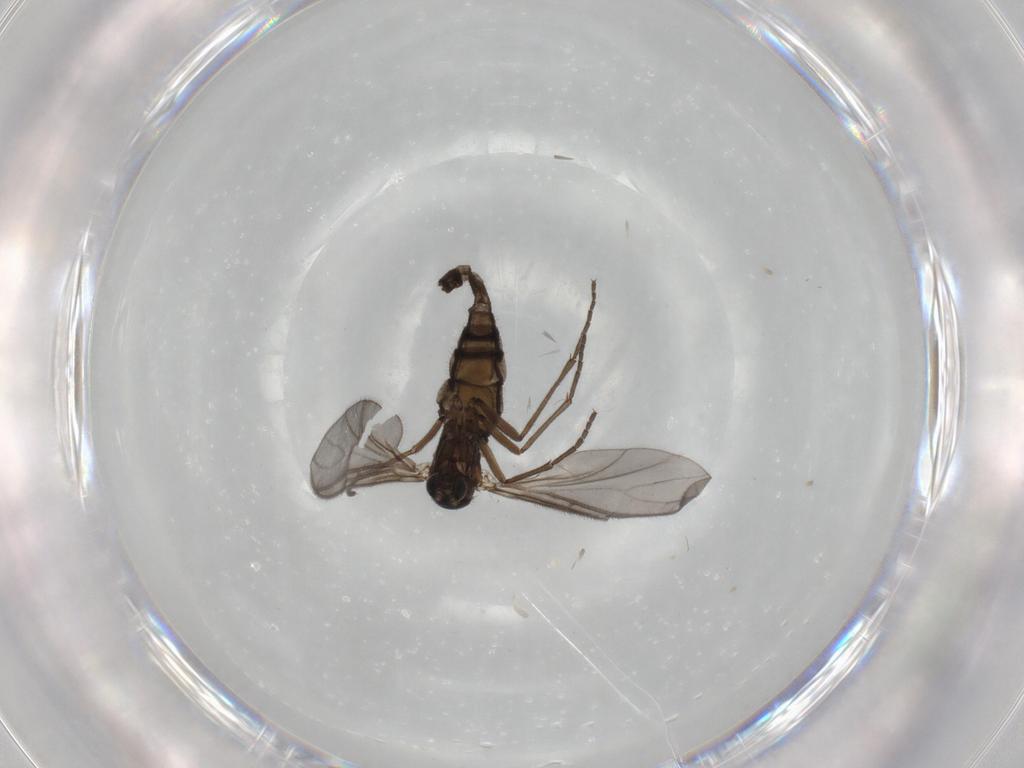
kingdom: Animalia
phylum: Arthropoda
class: Insecta
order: Diptera
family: Sciaridae
